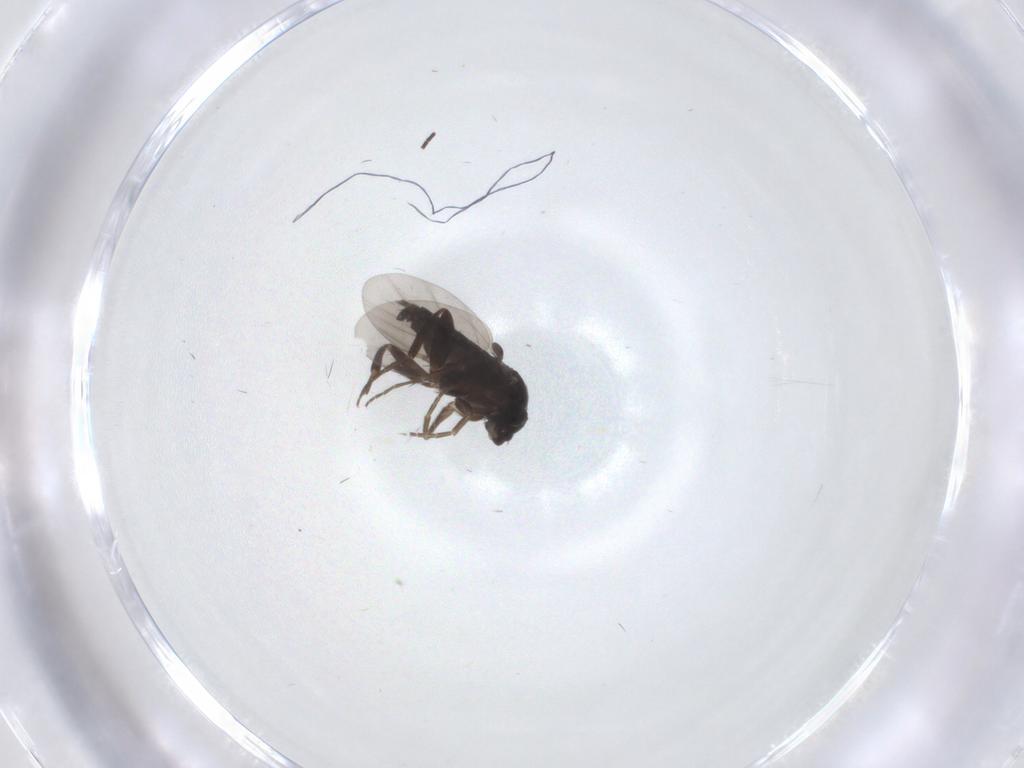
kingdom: Animalia
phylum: Arthropoda
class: Insecta
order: Diptera
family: Phoridae
